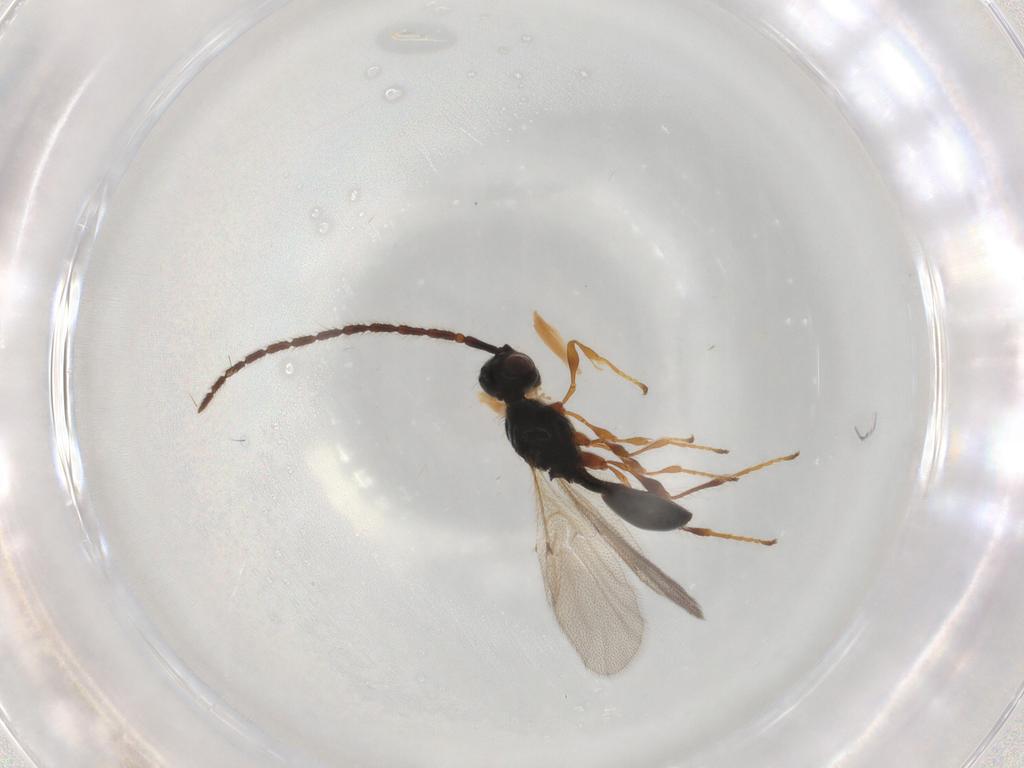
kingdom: Animalia
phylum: Arthropoda
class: Insecta
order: Hymenoptera
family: Diapriidae
